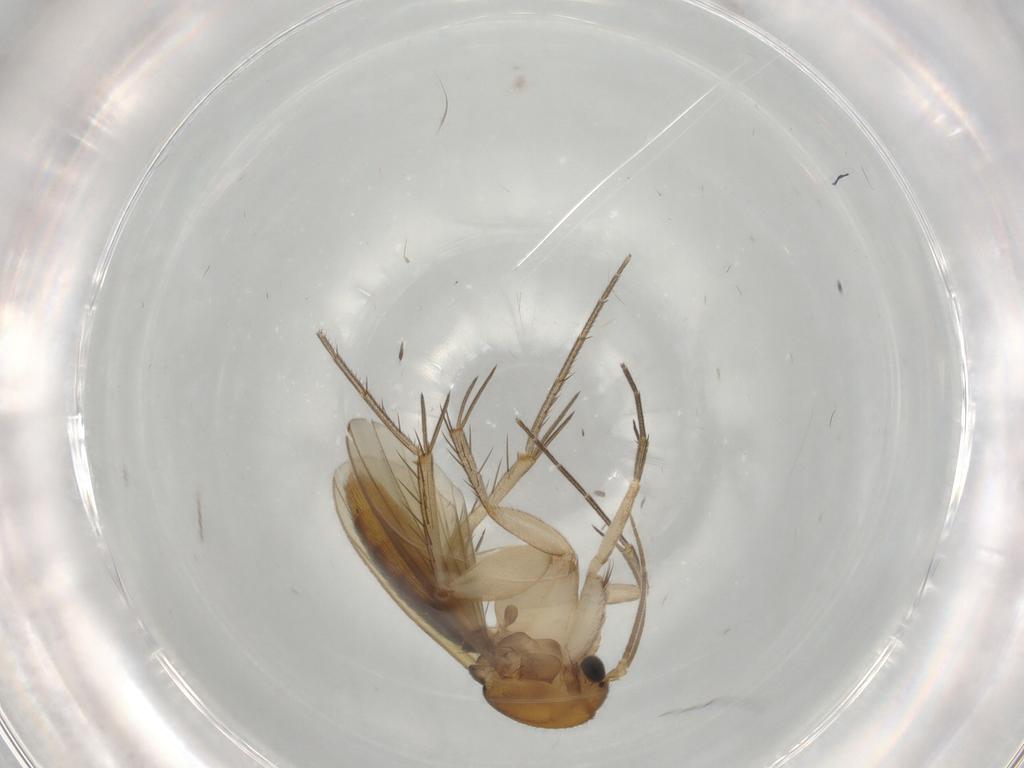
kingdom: Animalia
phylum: Arthropoda
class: Insecta
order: Diptera
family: Mycetophilidae
